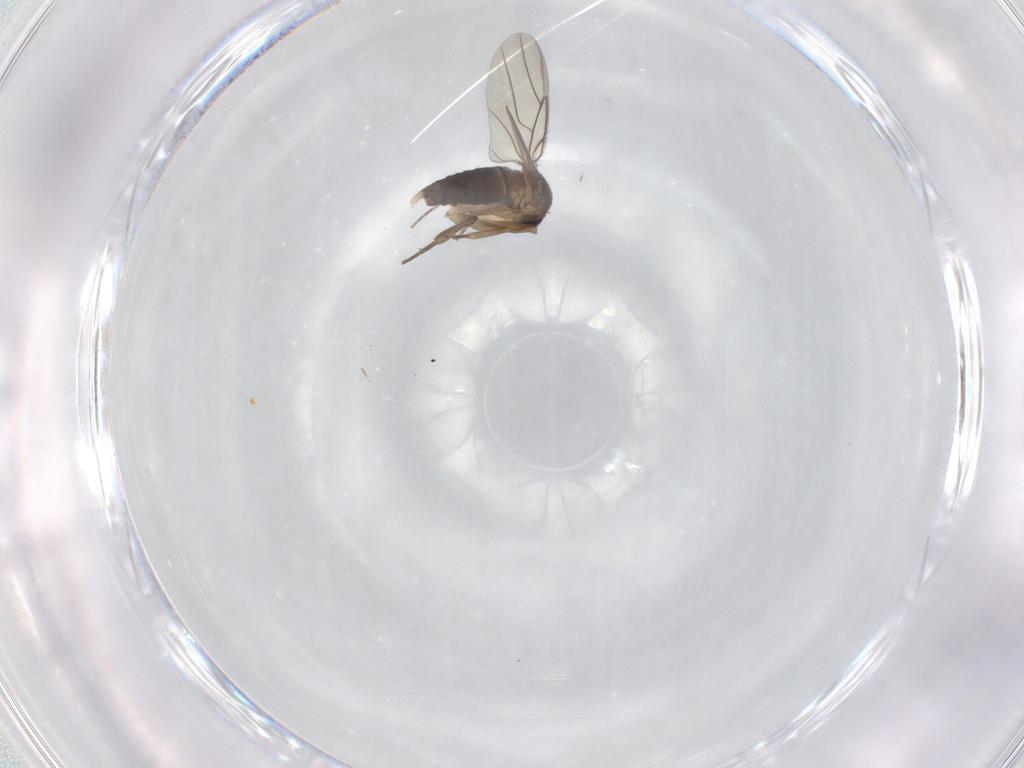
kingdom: Animalia
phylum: Arthropoda
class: Insecta
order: Diptera
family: Phoridae
